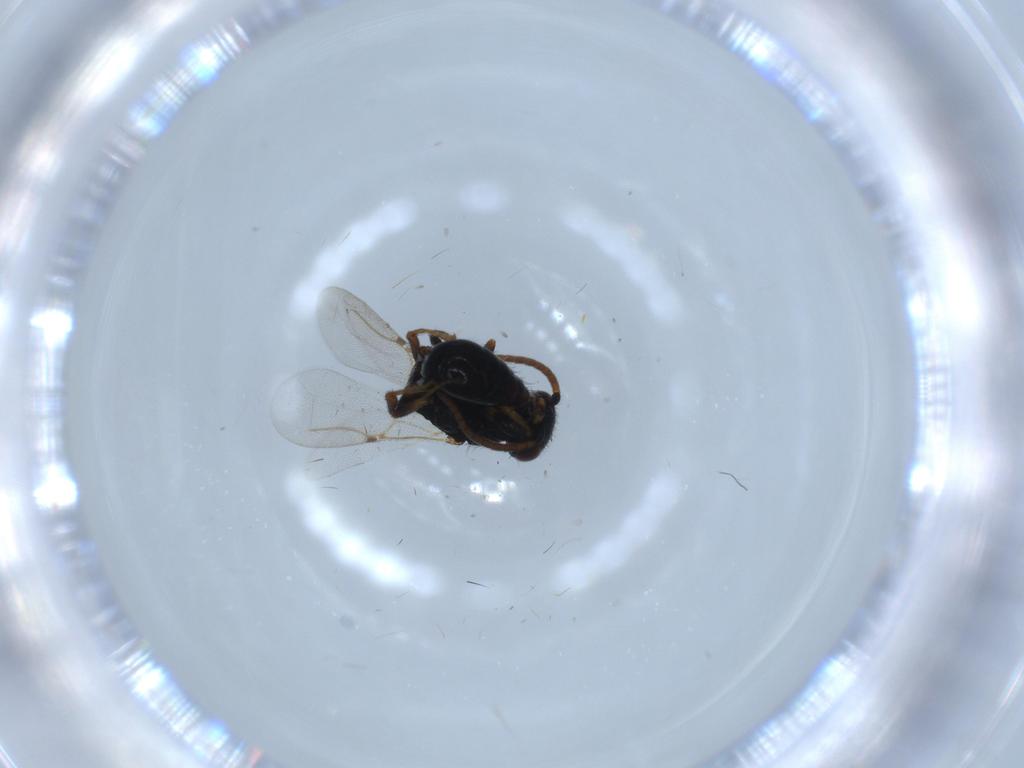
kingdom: Animalia
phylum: Arthropoda
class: Insecta
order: Hymenoptera
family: Bethylidae
